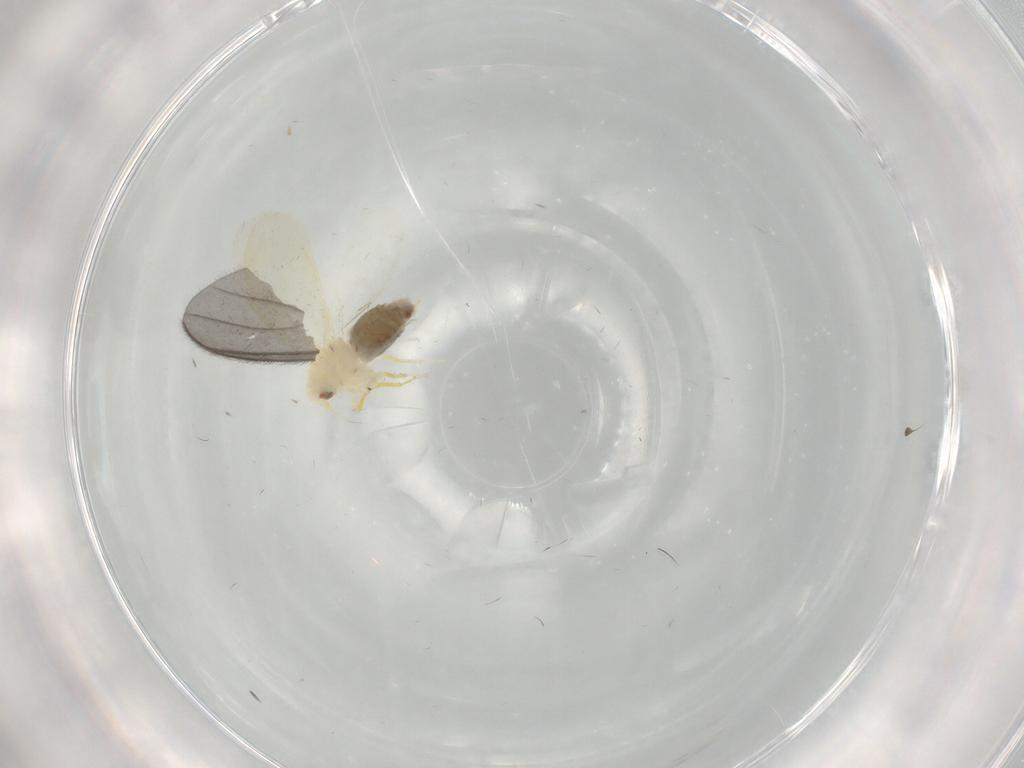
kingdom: Animalia
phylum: Arthropoda
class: Insecta
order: Hemiptera
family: Aleyrodidae
